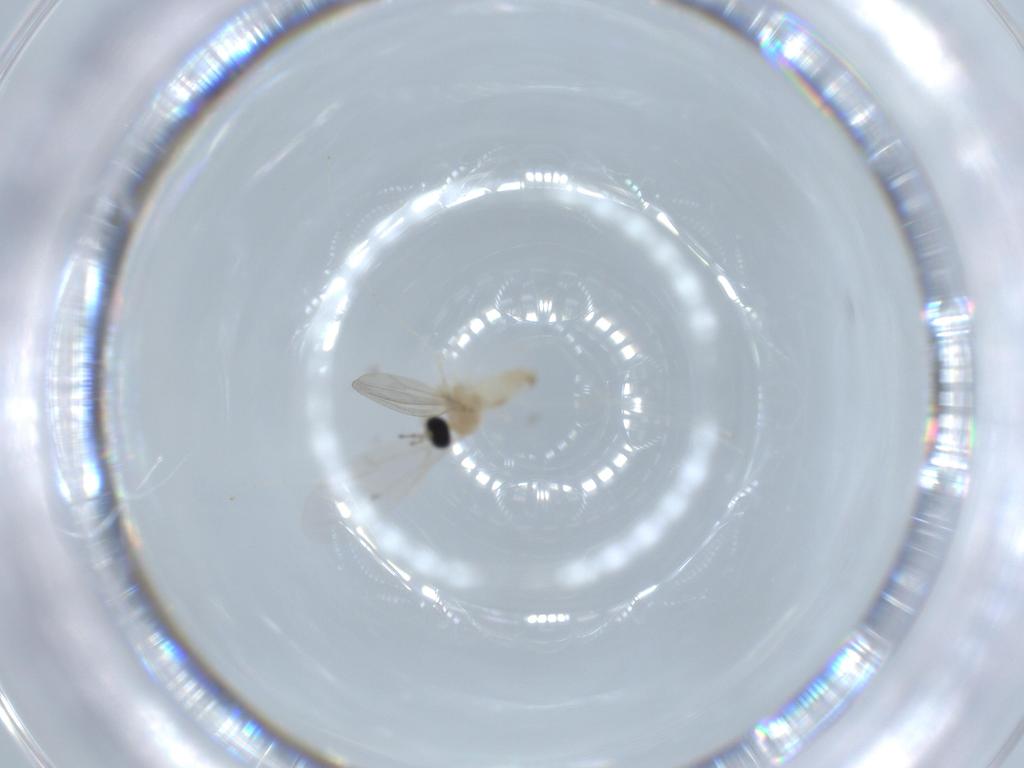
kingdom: Animalia
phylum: Arthropoda
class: Insecta
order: Diptera
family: Cecidomyiidae
